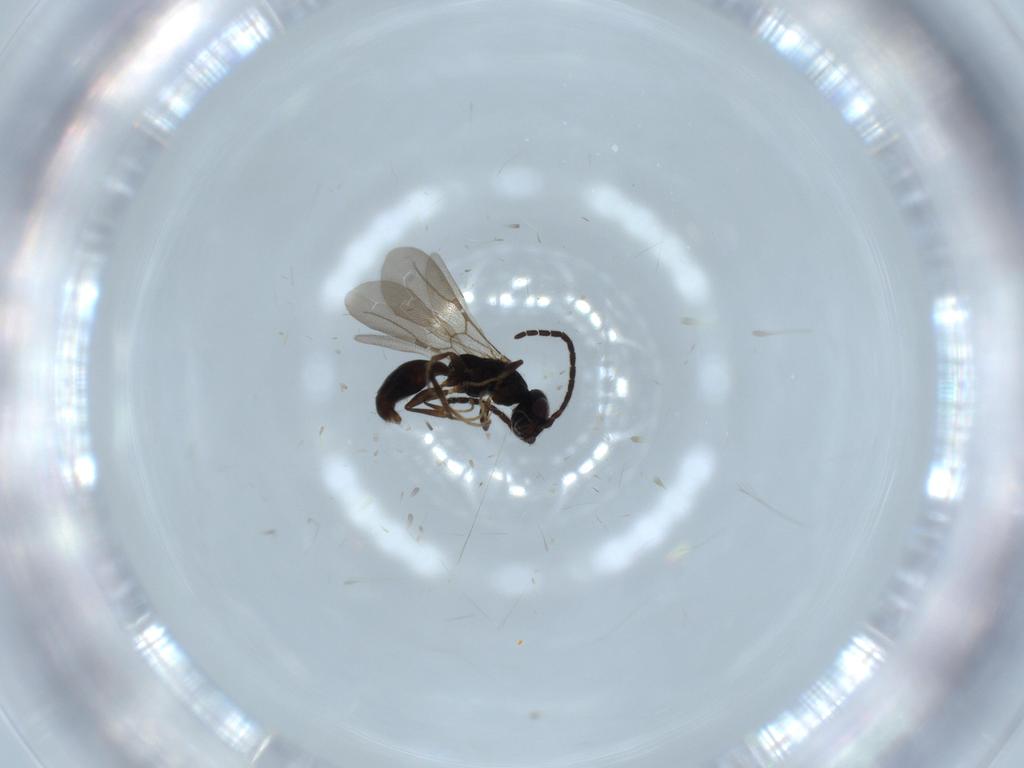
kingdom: Animalia
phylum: Arthropoda
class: Insecta
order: Hymenoptera
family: Bethylidae
